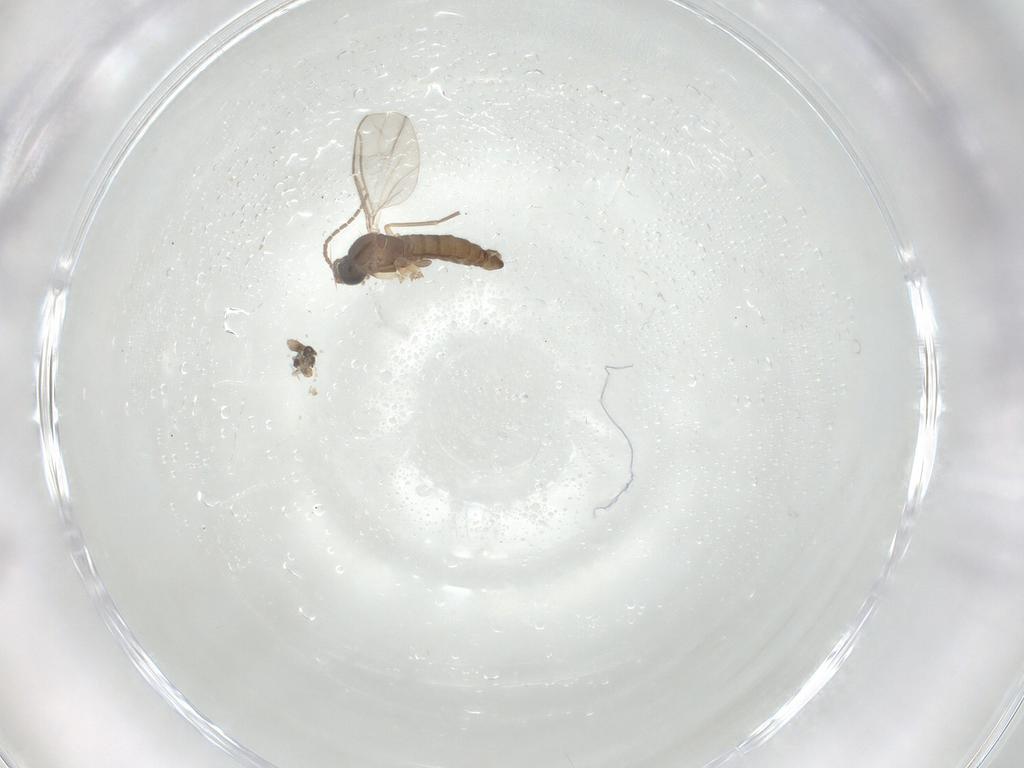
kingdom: Animalia
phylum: Arthropoda
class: Insecta
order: Diptera
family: Sciaridae
